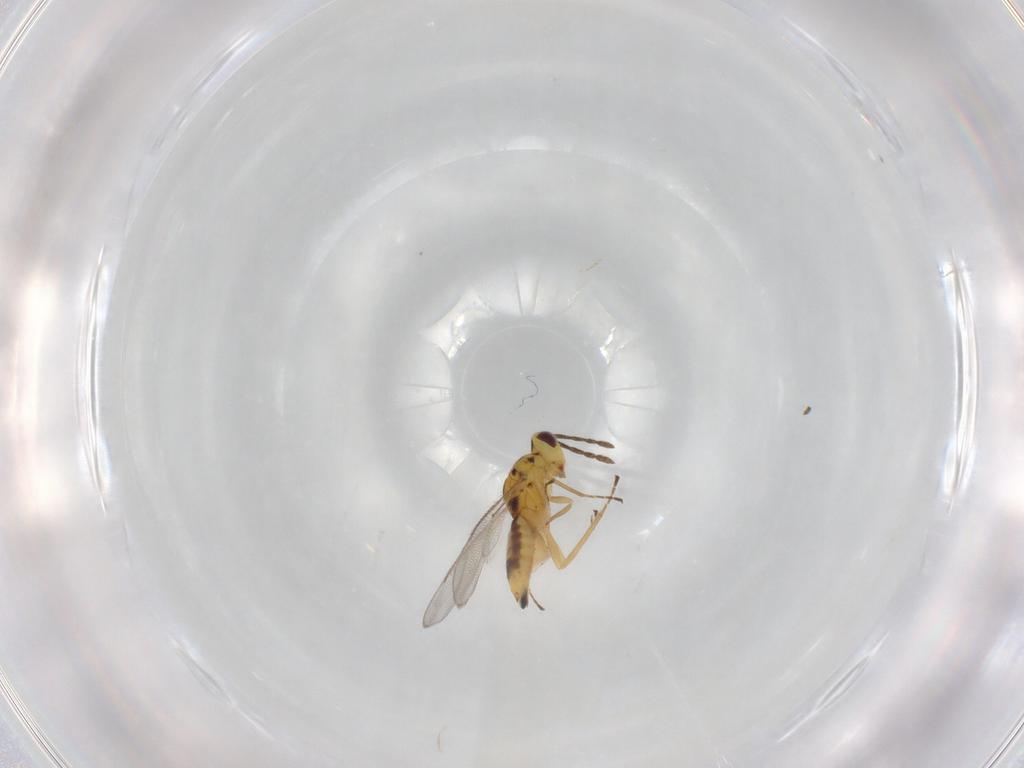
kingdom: Animalia
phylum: Arthropoda
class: Insecta
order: Hymenoptera
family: Eulophidae
